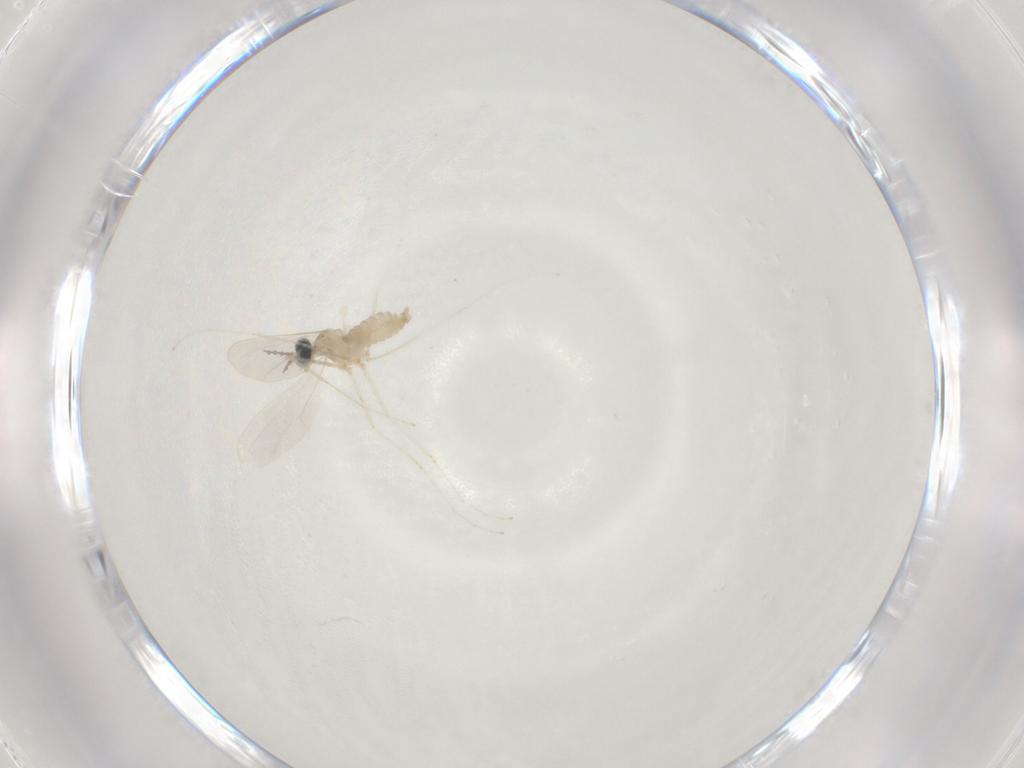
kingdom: Animalia
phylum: Arthropoda
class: Insecta
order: Diptera
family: Cecidomyiidae
